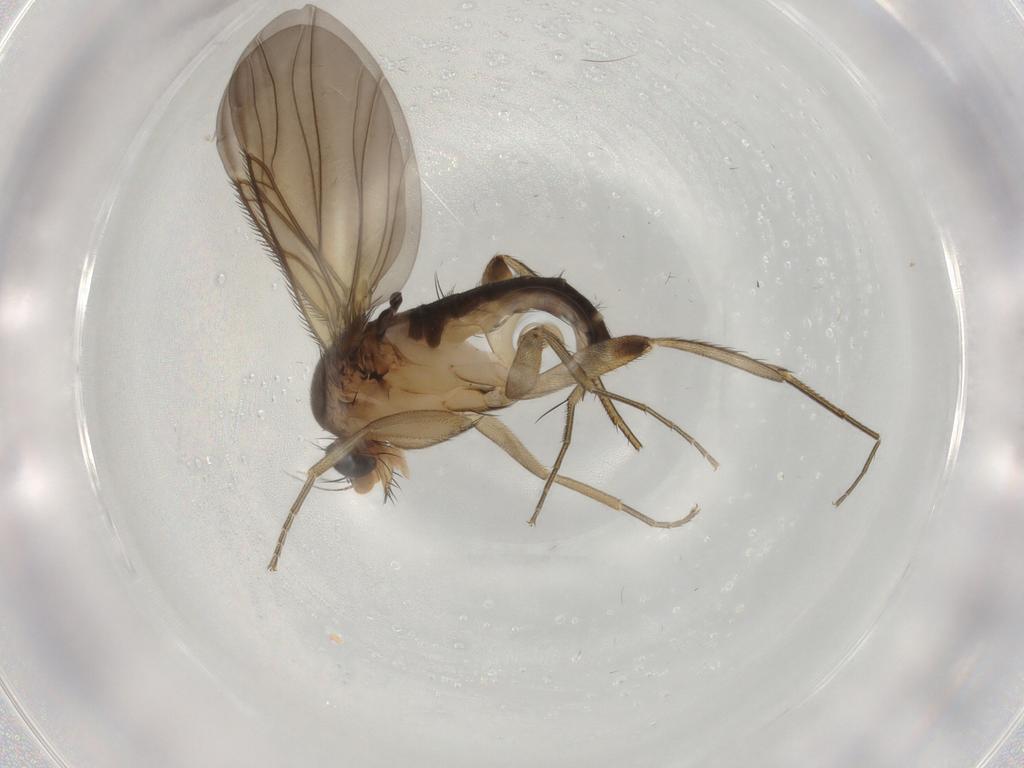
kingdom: Animalia
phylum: Arthropoda
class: Insecta
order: Diptera
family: Phoridae
